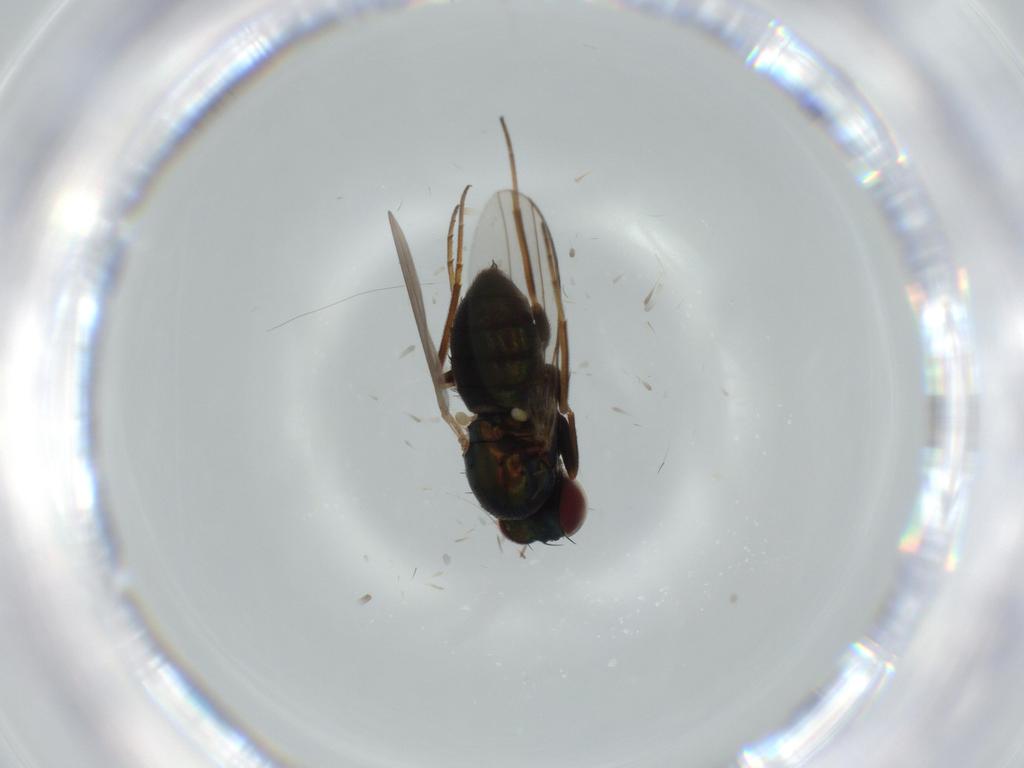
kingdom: Animalia
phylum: Arthropoda
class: Insecta
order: Diptera
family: Dolichopodidae
